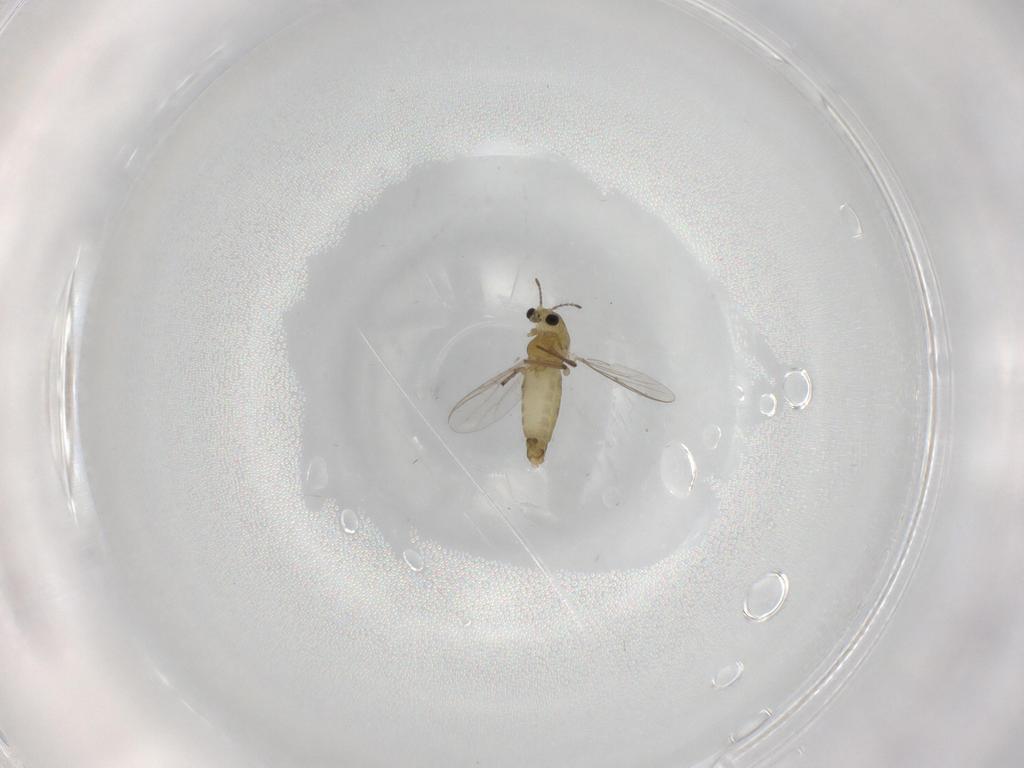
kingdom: Animalia
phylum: Arthropoda
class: Insecta
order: Diptera
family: Chironomidae
